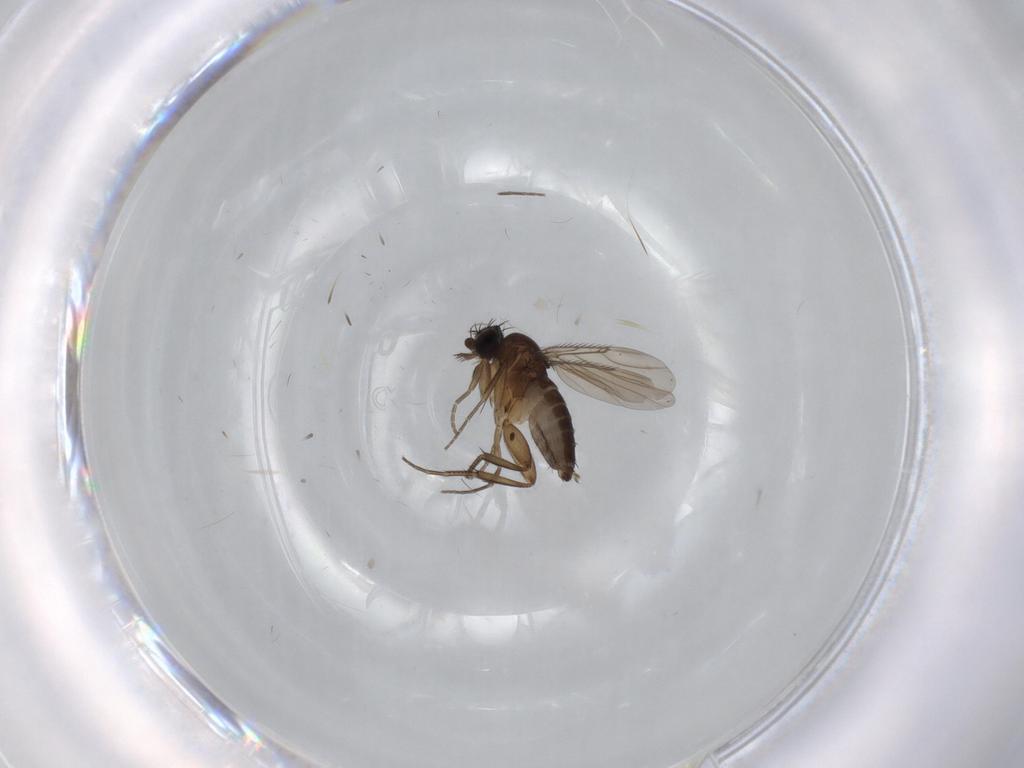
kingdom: Animalia
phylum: Arthropoda
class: Insecta
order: Diptera
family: Phoridae
